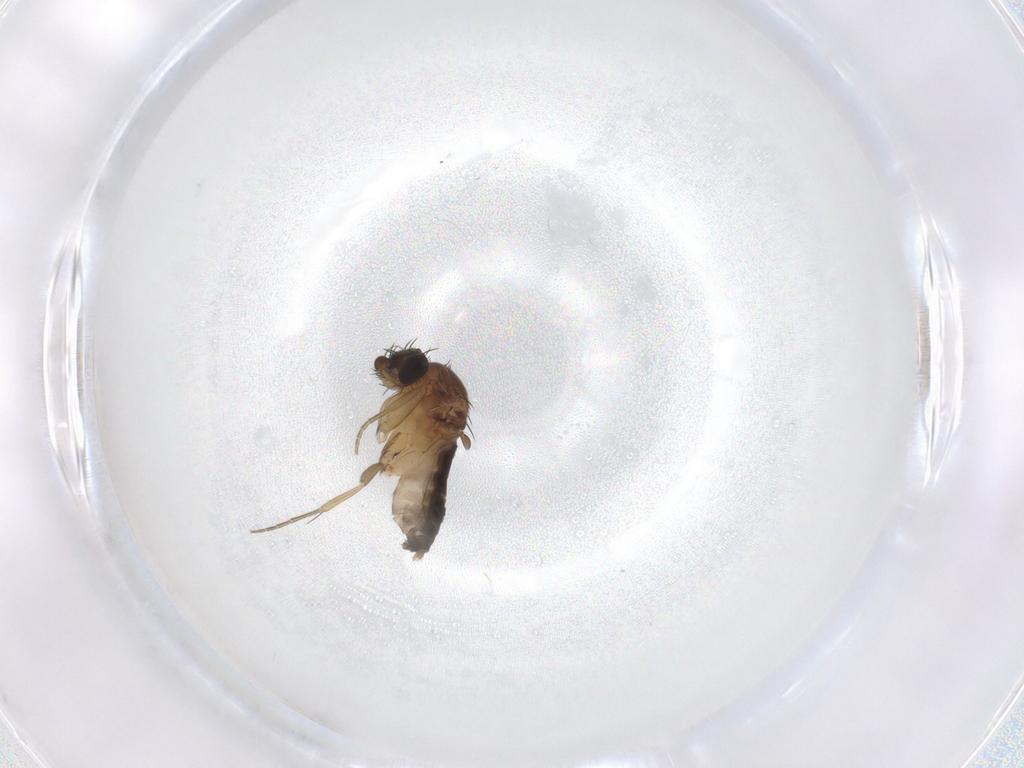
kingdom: Animalia
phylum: Arthropoda
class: Insecta
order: Diptera
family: Phoridae
